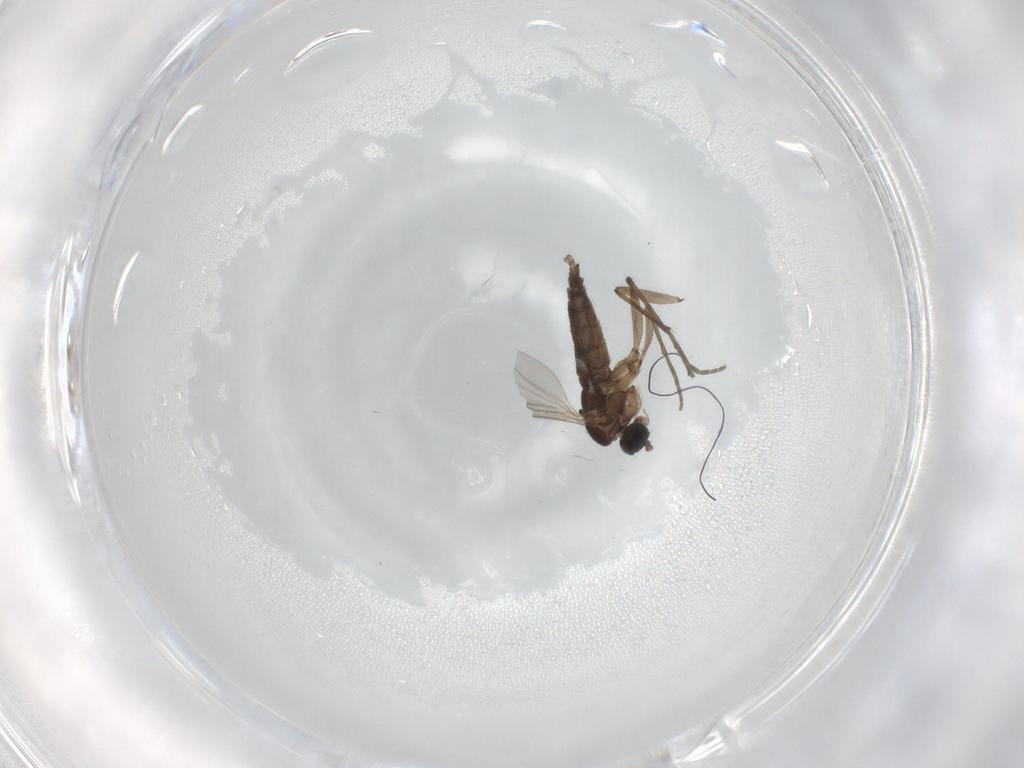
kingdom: Animalia
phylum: Arthropoda
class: Insecta
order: Diptera
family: Sciaridae
